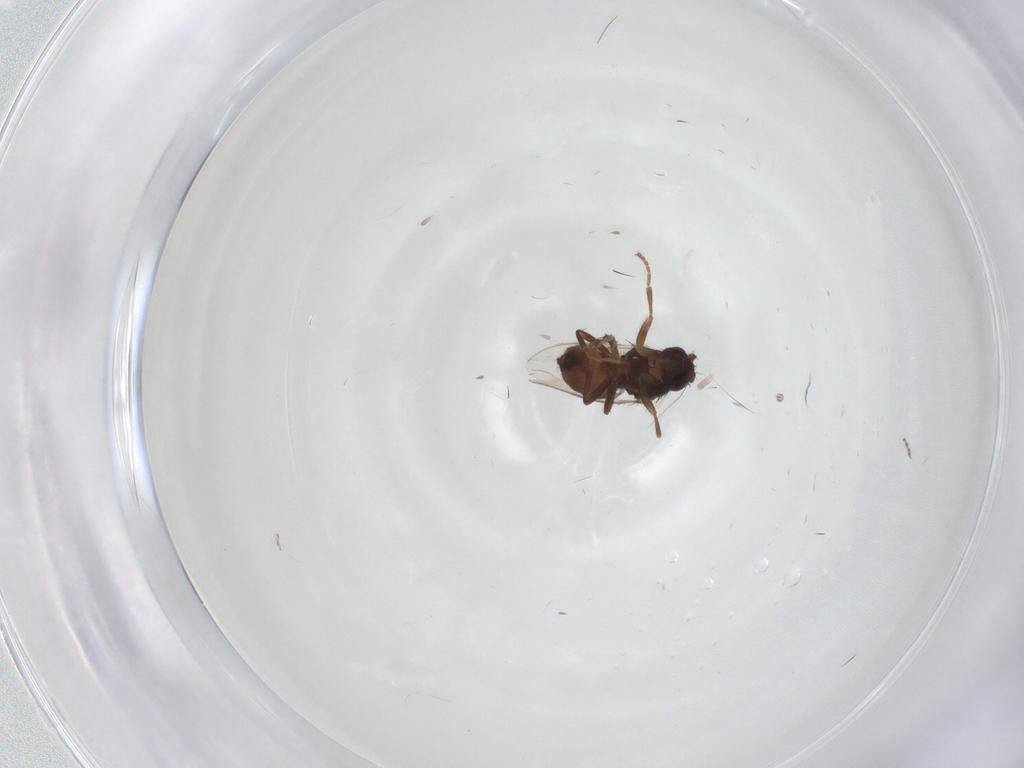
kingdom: Animalia
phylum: Arthropoda
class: Insecta
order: Diptera
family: Sphaeroceridae
